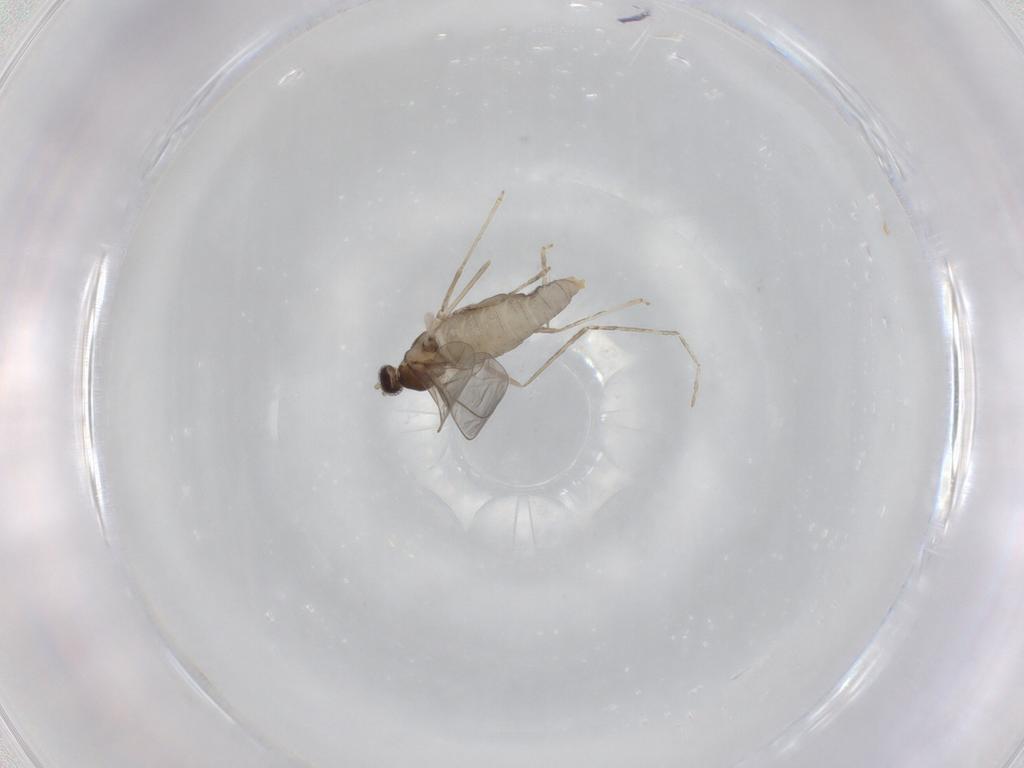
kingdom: Animalia
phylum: Arthropoda
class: Insecta
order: Diptera
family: Cecidomyiidae
